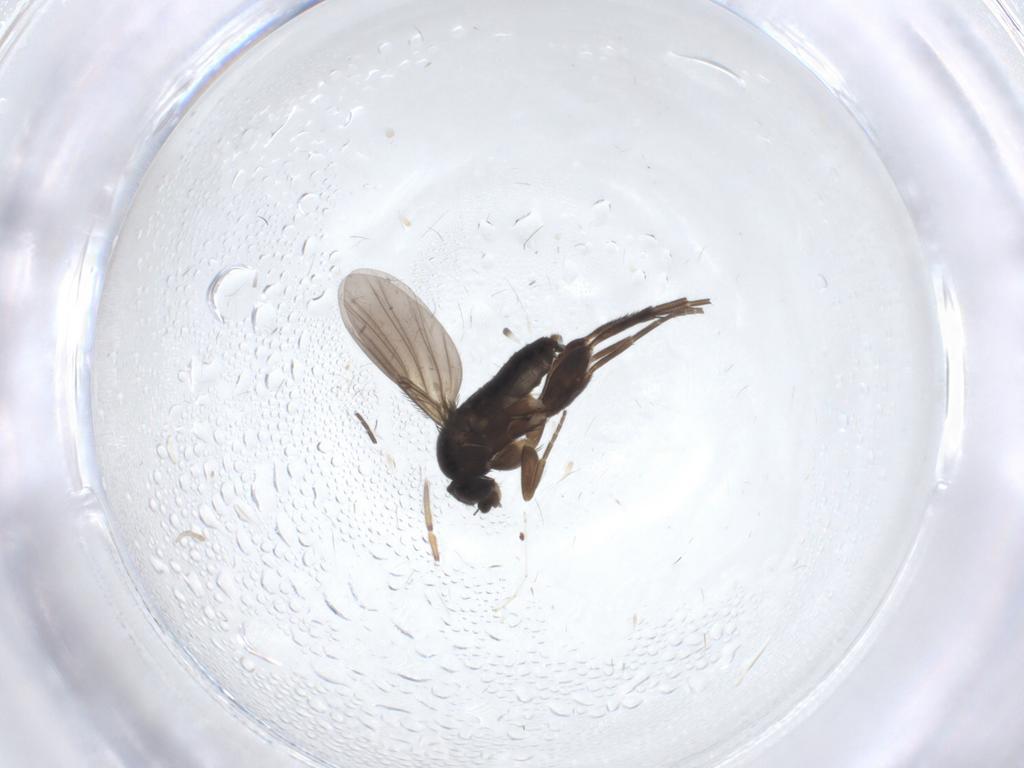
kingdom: Animalia
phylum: Arthropoda
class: Insecta
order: Diptera
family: Phoridae
